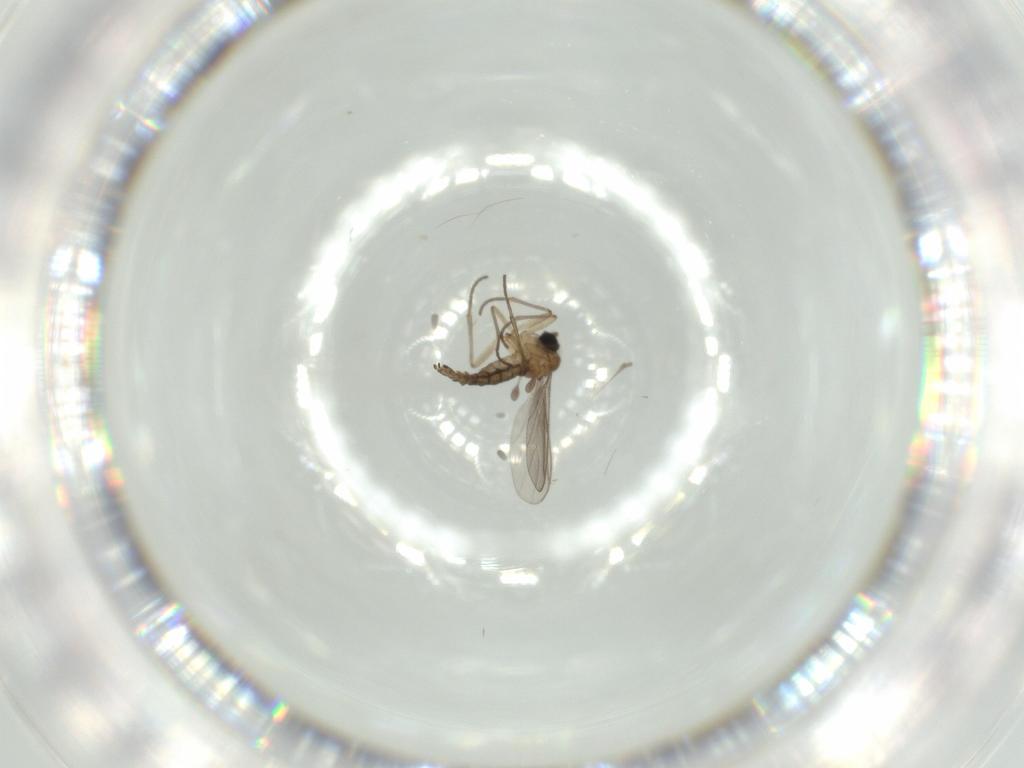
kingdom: Animalia
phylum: Arthropoda
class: Insecta
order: Diptera
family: Sciaridae
